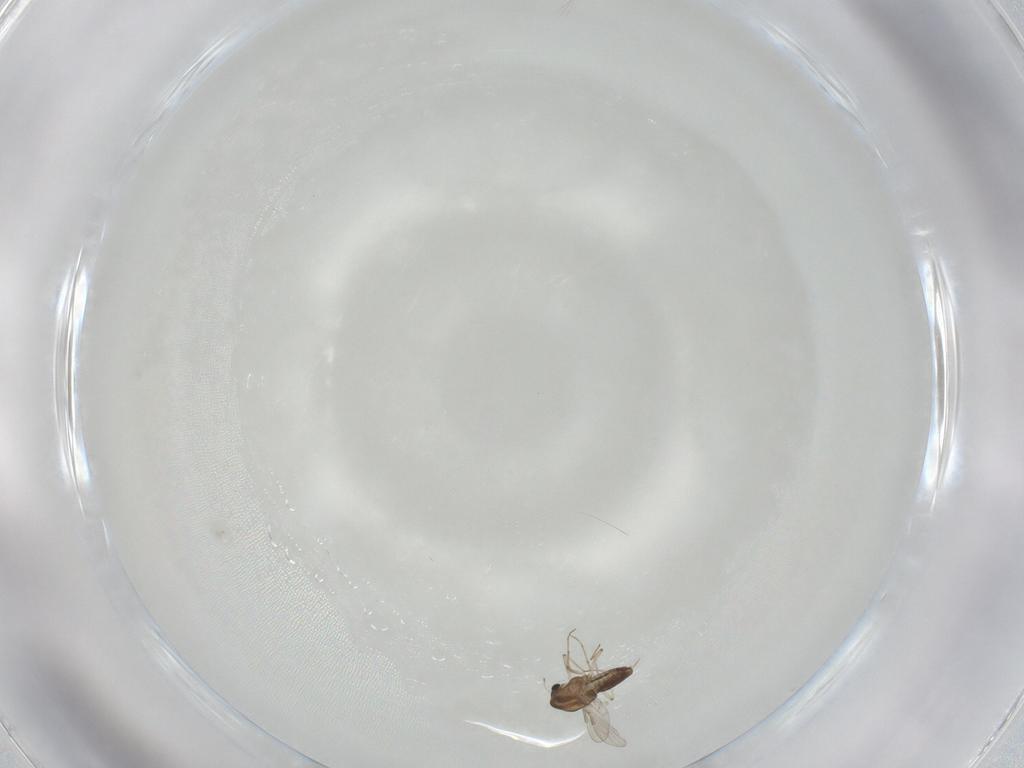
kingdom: Animalia
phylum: Arthropoda
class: Insecta
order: Diptera
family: Chironomidae
